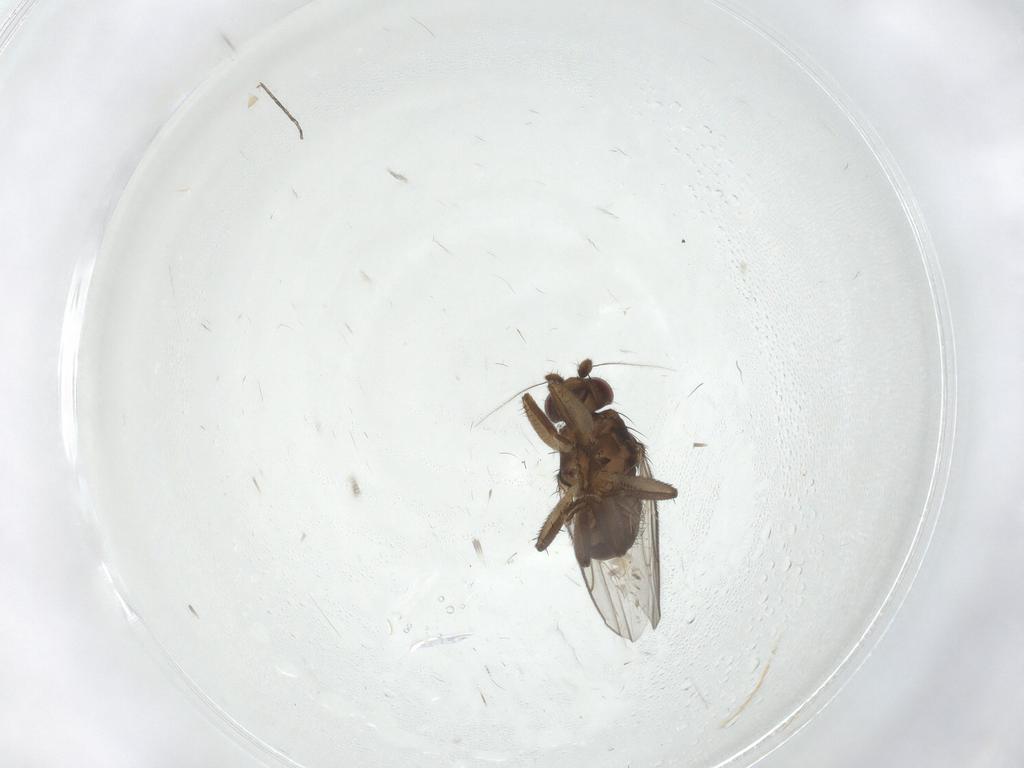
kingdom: Animalia
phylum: Arthropoda
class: Insecta
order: Diptera
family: Sphaeroceridae
